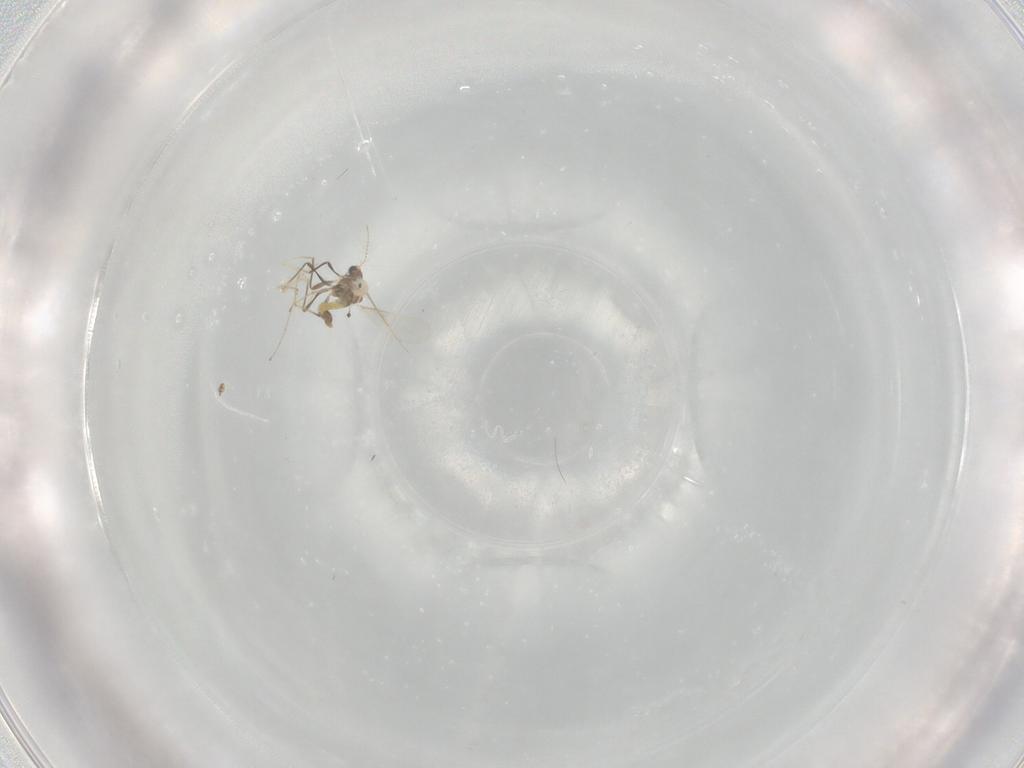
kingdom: Animalia
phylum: Arthropoda
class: Insecta
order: Diptera
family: Chironomidae
